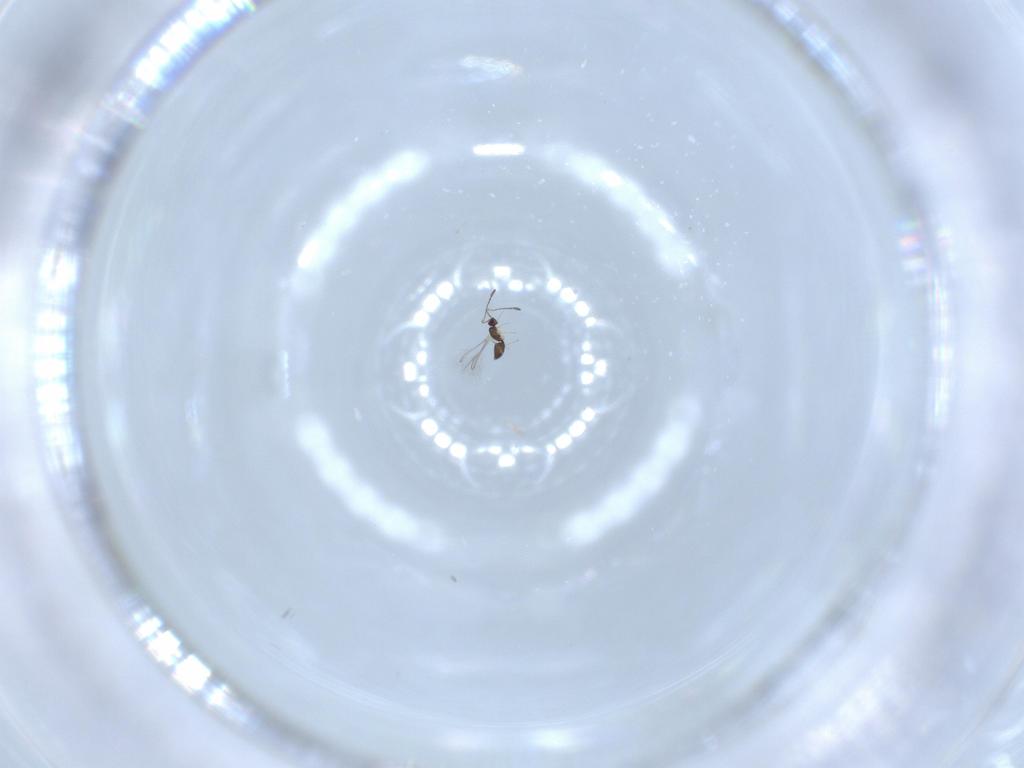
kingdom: Animalia
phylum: Arthropoda
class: Insecta
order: Hymenoptera
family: Mymaridae
